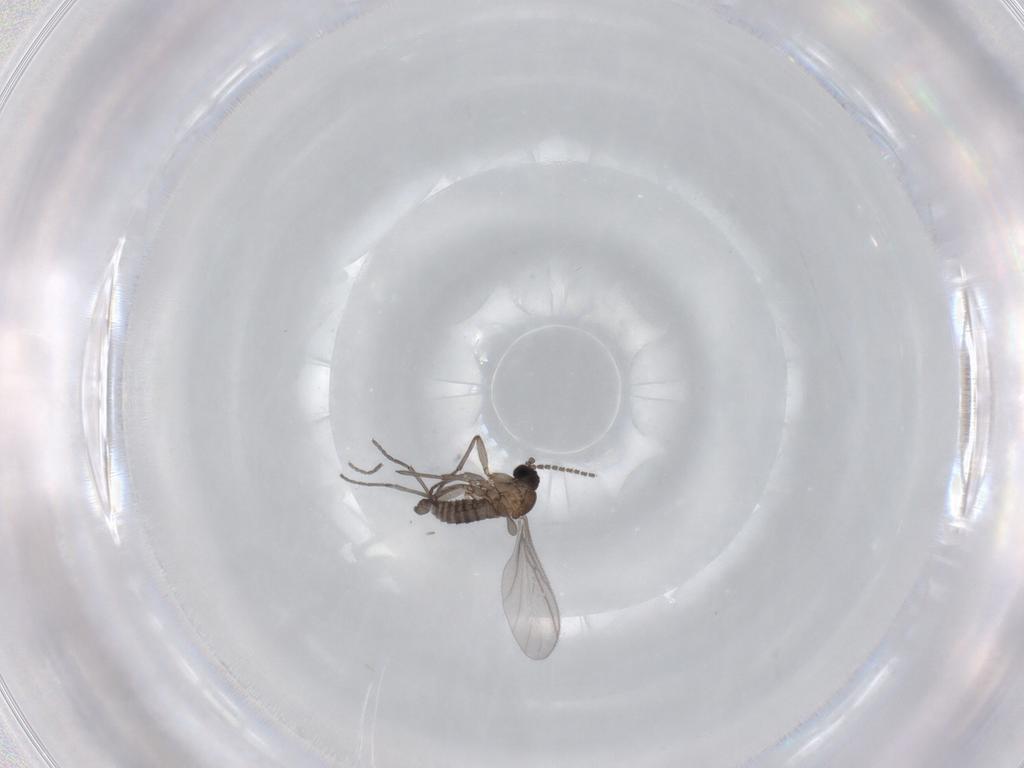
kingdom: Animalia
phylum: Arthropoda
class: Insecta
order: Diptera
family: Sciaridae
